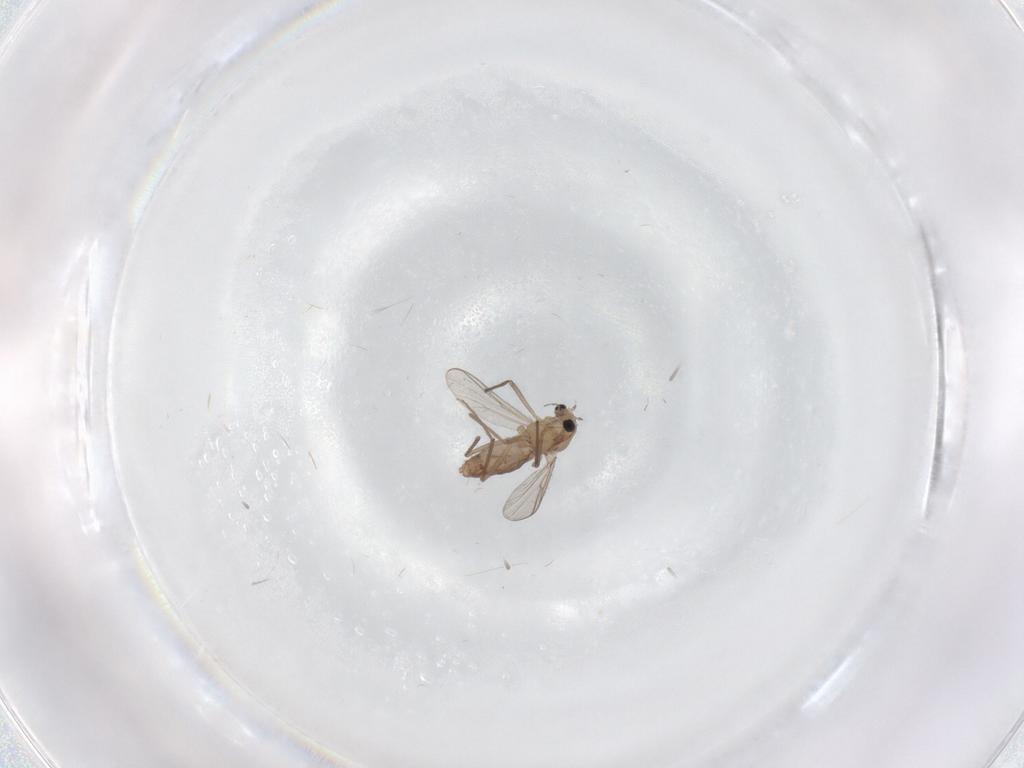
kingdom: Animalia
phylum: Arthropoda
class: Insecta
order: Diptera
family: Chironomidae
